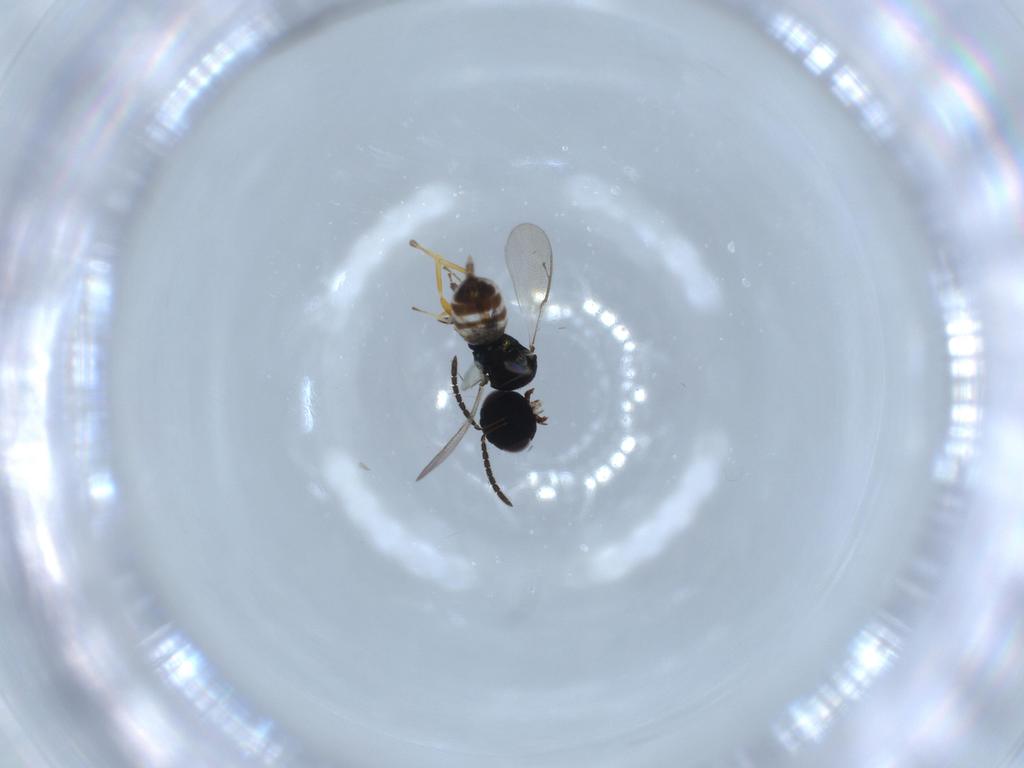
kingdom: Animalia
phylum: Arthropoda
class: Insecta
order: Hymenoptera
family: Pteromalidae
